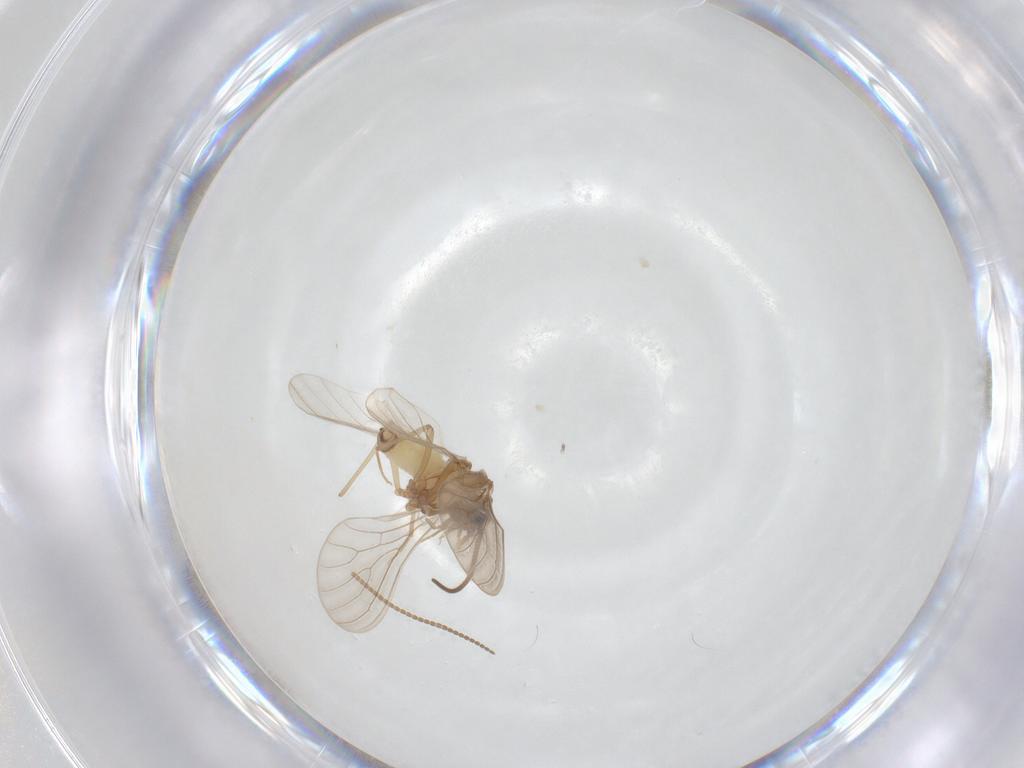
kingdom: Animalia
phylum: Arthropoda
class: Insecta
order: Neuroptera
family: Coniopterygidae
